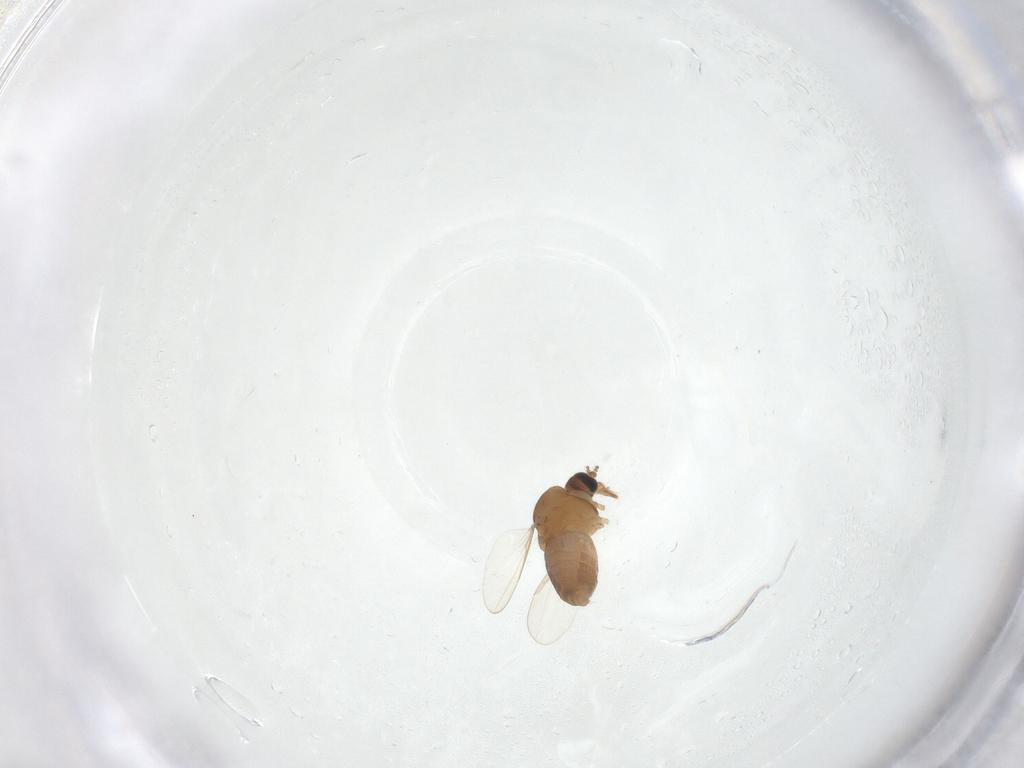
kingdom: Animalia
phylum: Arthropoda
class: Insecta
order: Diptera
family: Ceratopogonidae
